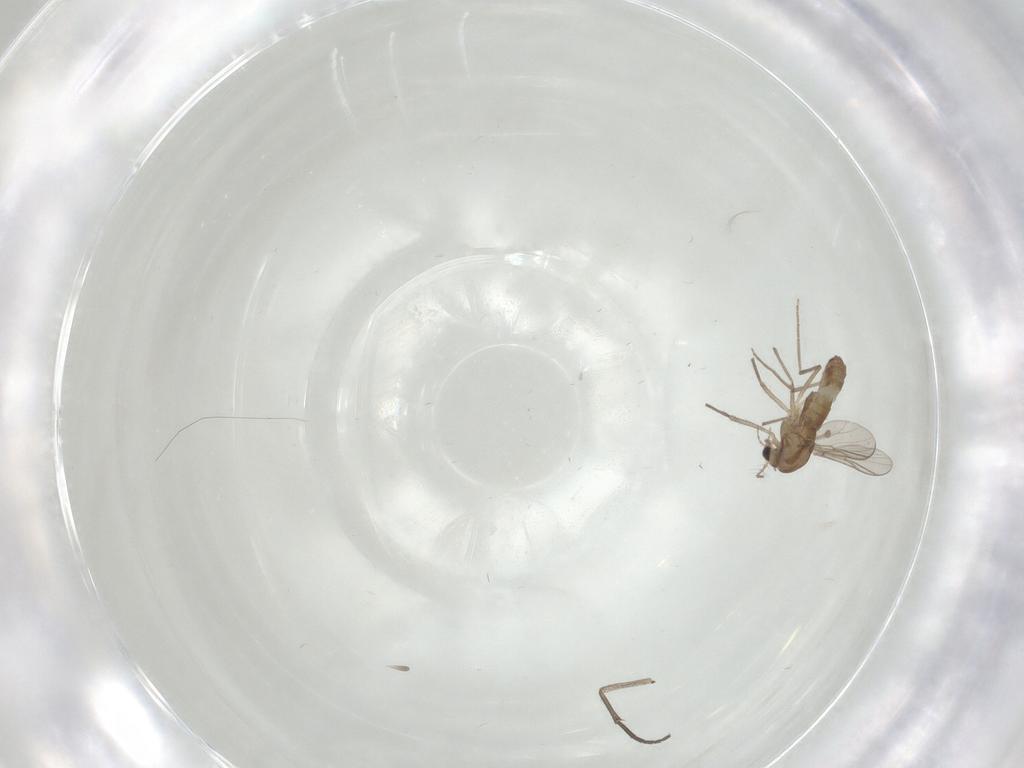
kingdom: Animalia
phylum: Arthropoda
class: Insecta
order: Diptera
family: Chironomidae
